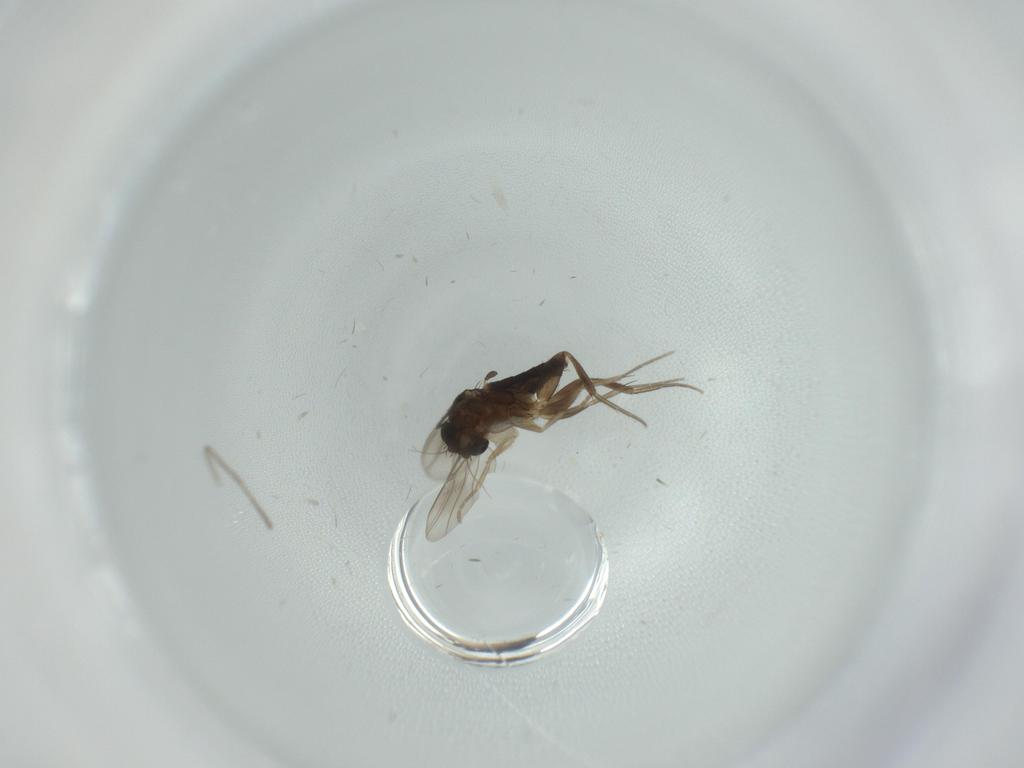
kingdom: Animalia
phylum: Arthropoda
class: Insecta
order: Diptera
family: Phoridae
